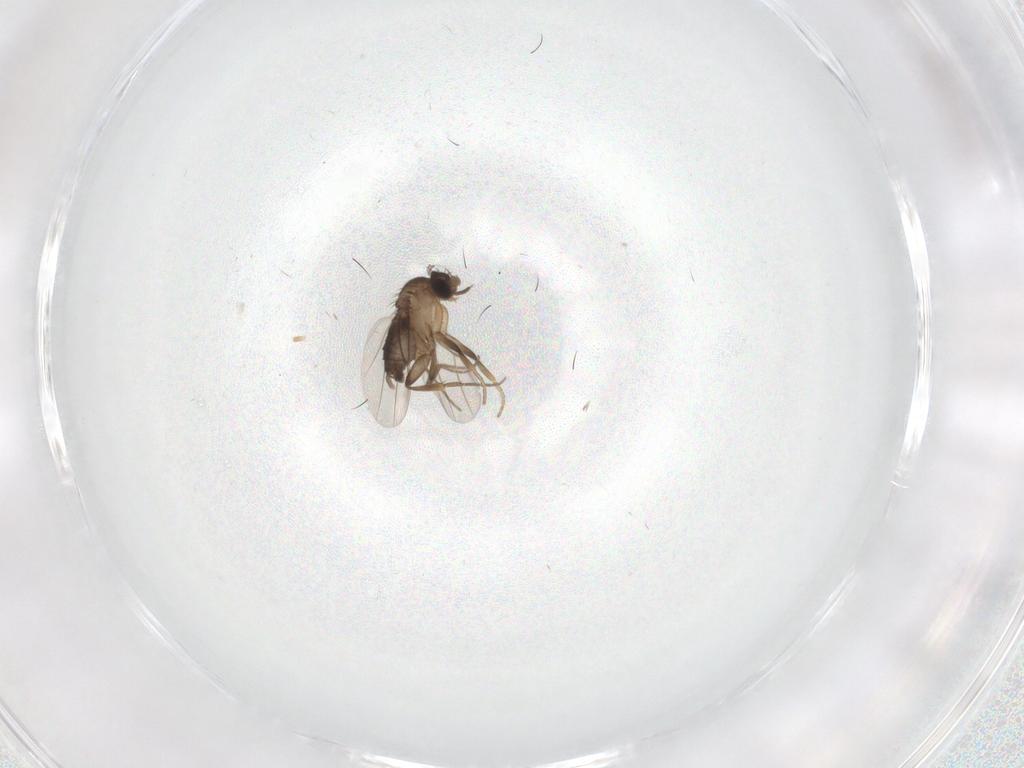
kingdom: Animalia
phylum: Arthropoda
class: Insecta
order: Diptera
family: Phoridae
